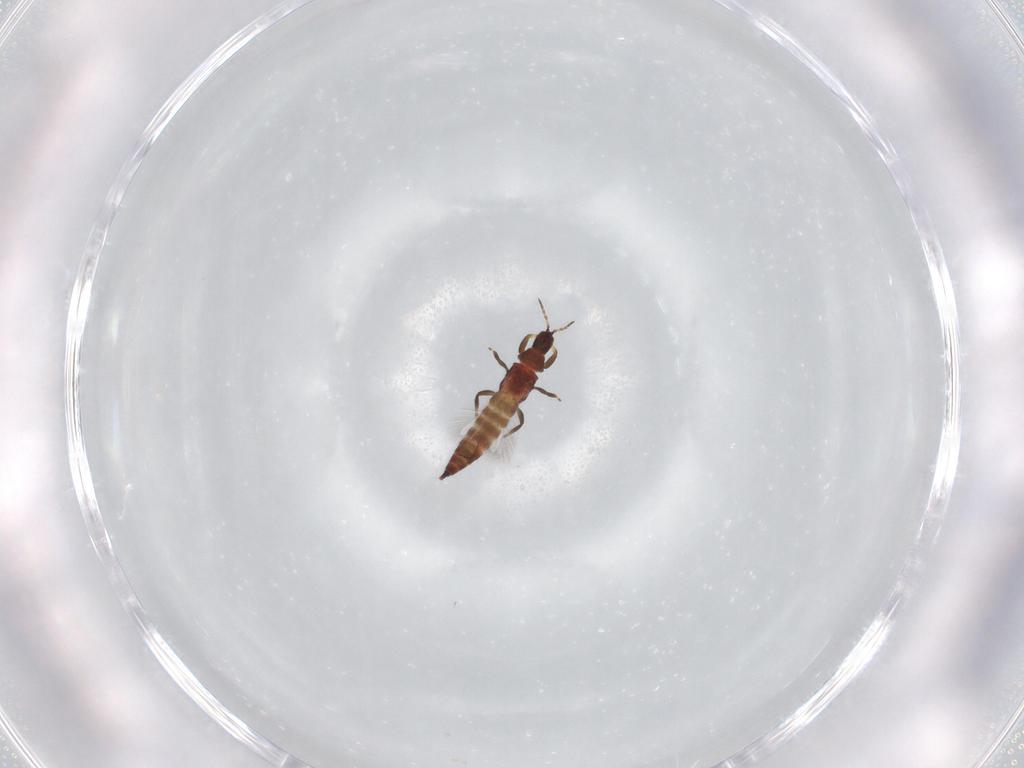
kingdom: Animalia
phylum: Arthropoda
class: Insecta
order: Thysanoptera
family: Phlaeothripidae
